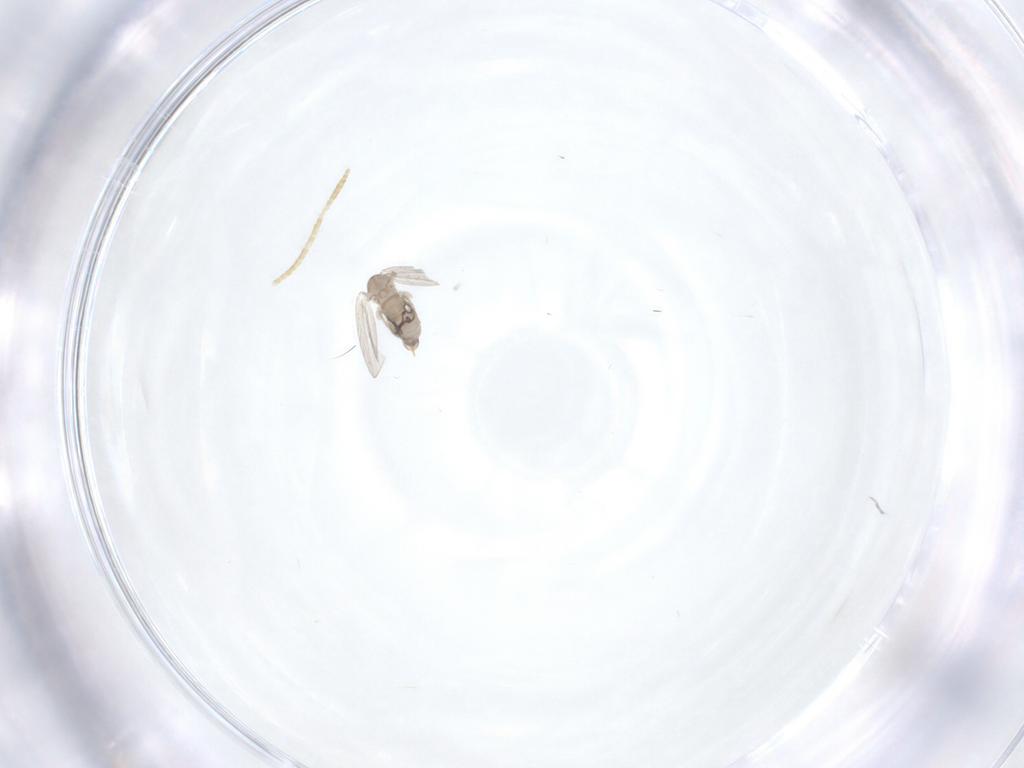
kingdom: Animalia
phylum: Arthropoda
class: Insecta
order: Diptera
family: Psychodidae
